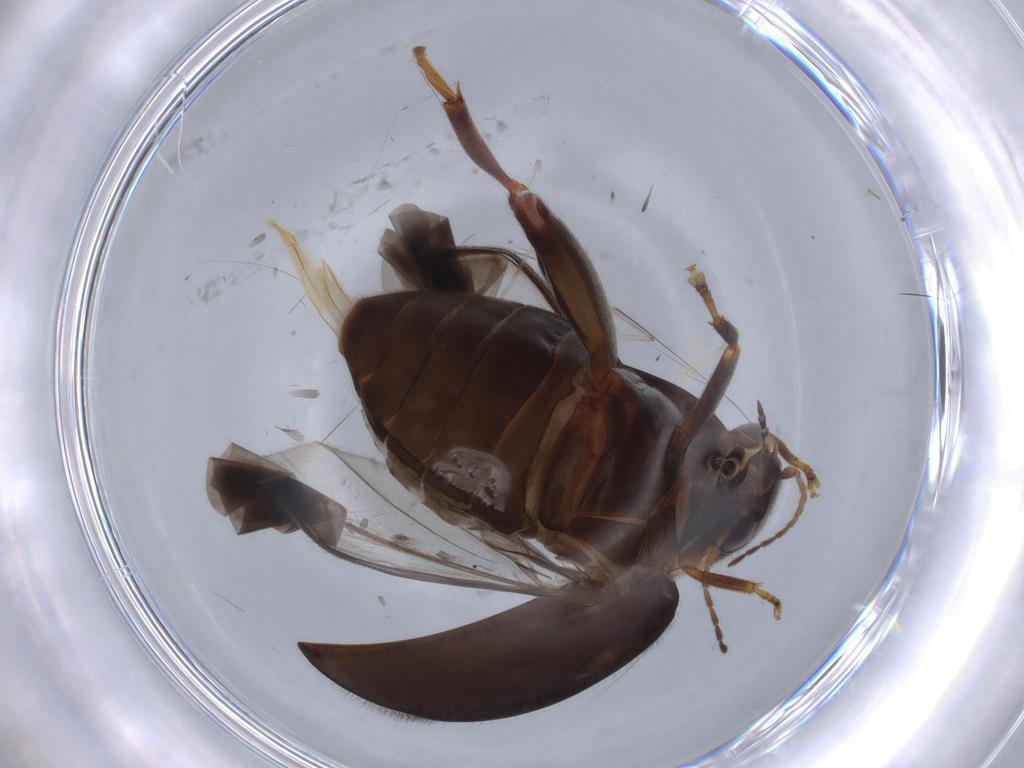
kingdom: Animalia
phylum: Arthropoda
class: Insecta
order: Coleoptera
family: Scirtidae
